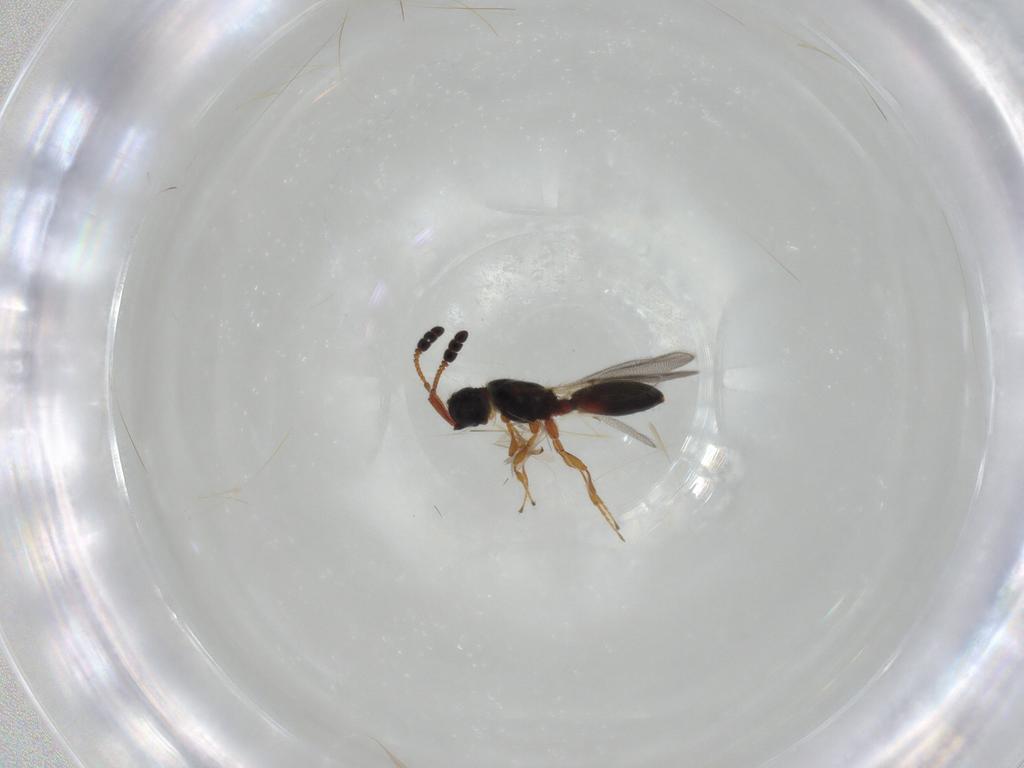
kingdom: Animalia
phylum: Arthropoda
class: Insecta
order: Hymenoptera
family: Diapriidae
